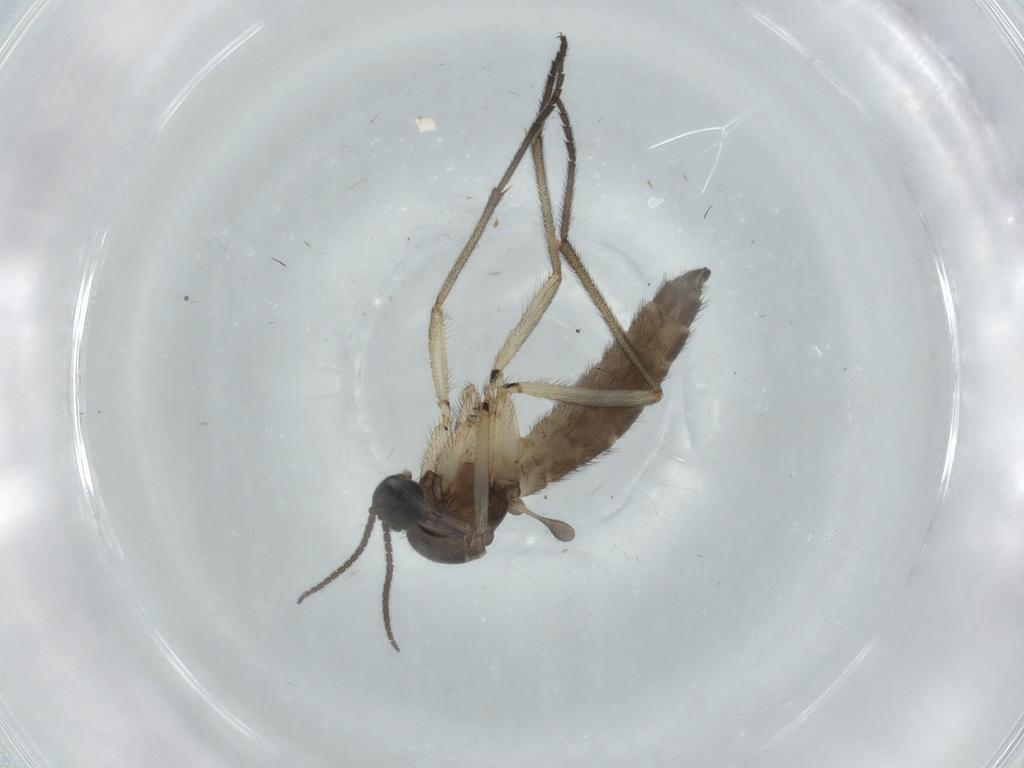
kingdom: Animalia
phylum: Arthropoda
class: Insecta
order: Diptera
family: Sciaridae
